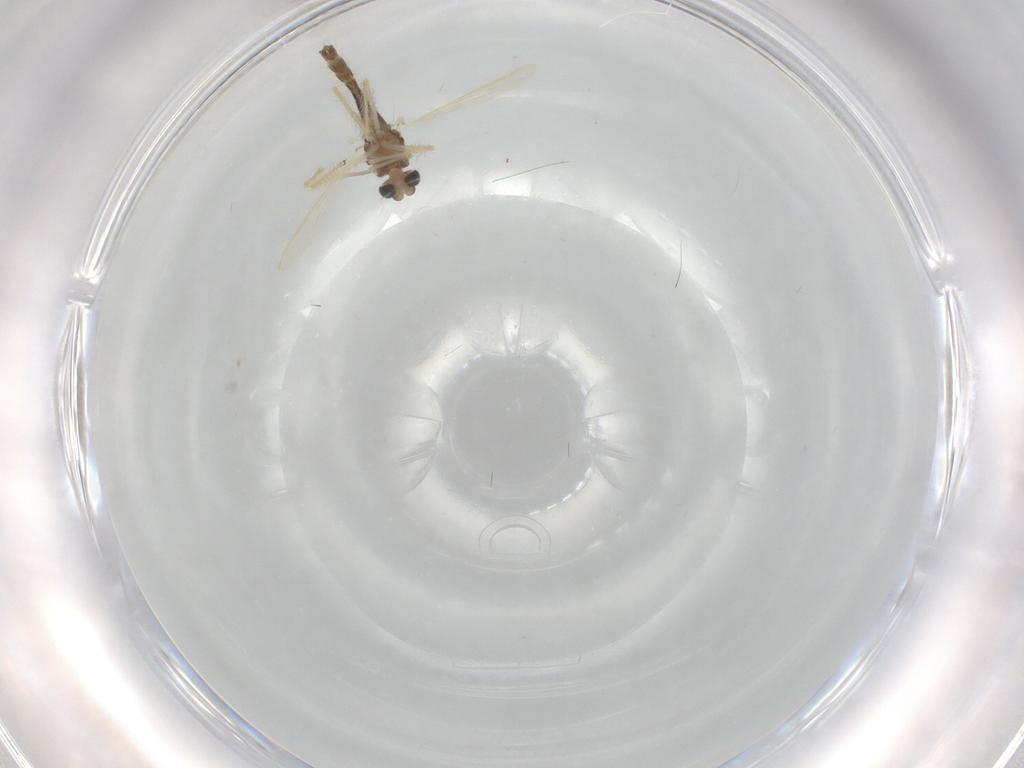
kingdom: Animalia
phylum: Arthropoda
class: Insecta
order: Diptera
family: Chironomidae
